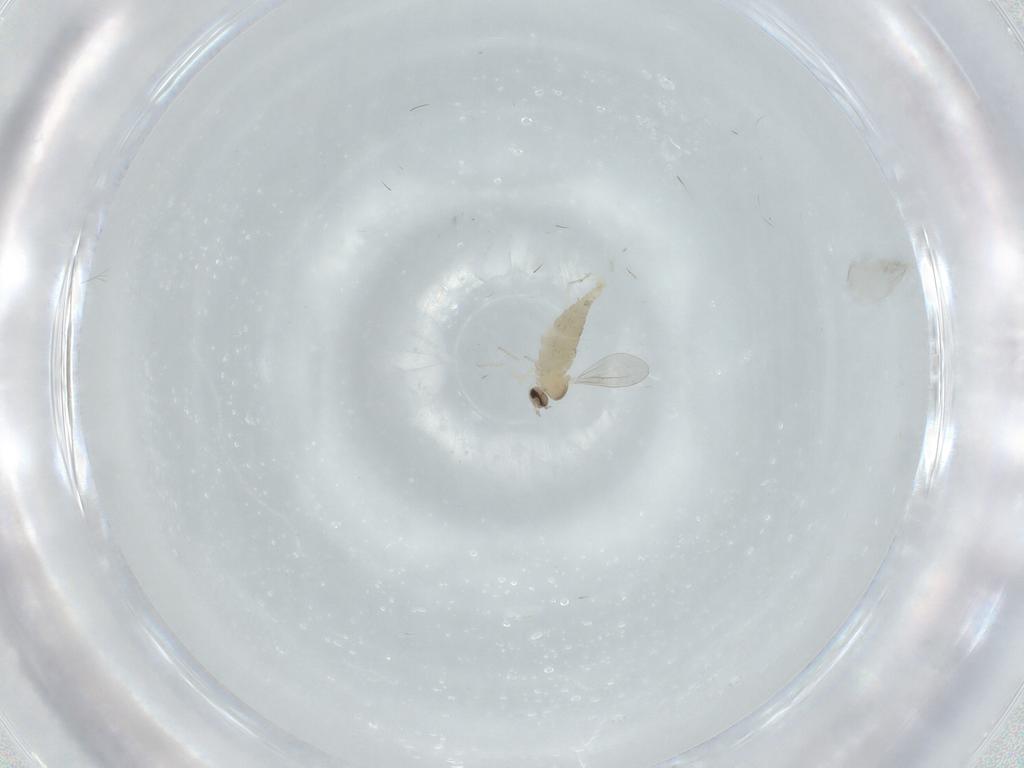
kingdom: Animalia
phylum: Arthropoda
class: Insecta
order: Diptera
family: Cecidomyiidae
